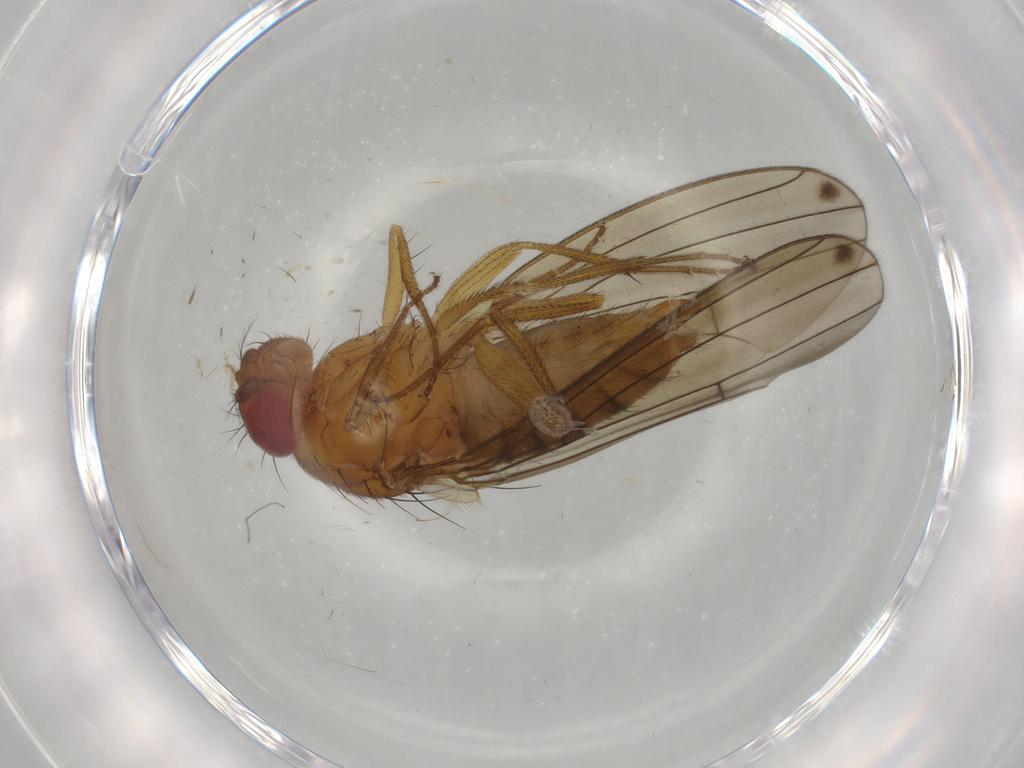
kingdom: Animalia
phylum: Arthropoda
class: Insecta
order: Diptera
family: Drosophilidae
